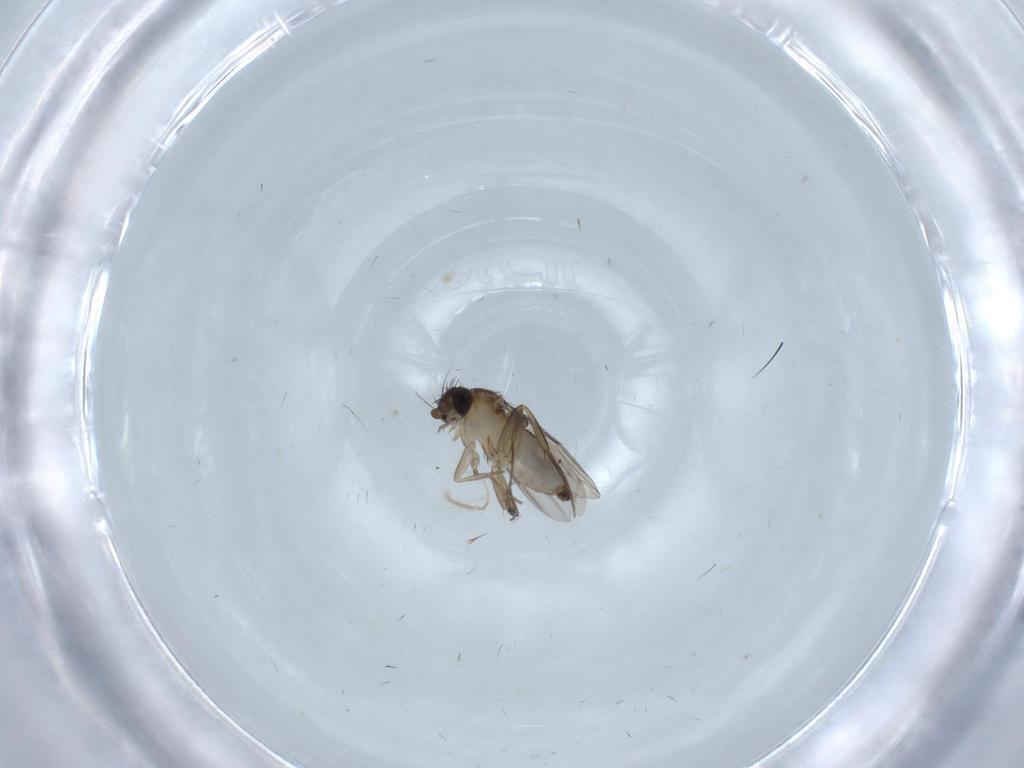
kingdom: Animalia
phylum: Arthropoda
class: Insecta
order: Diptera
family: Phoridae
